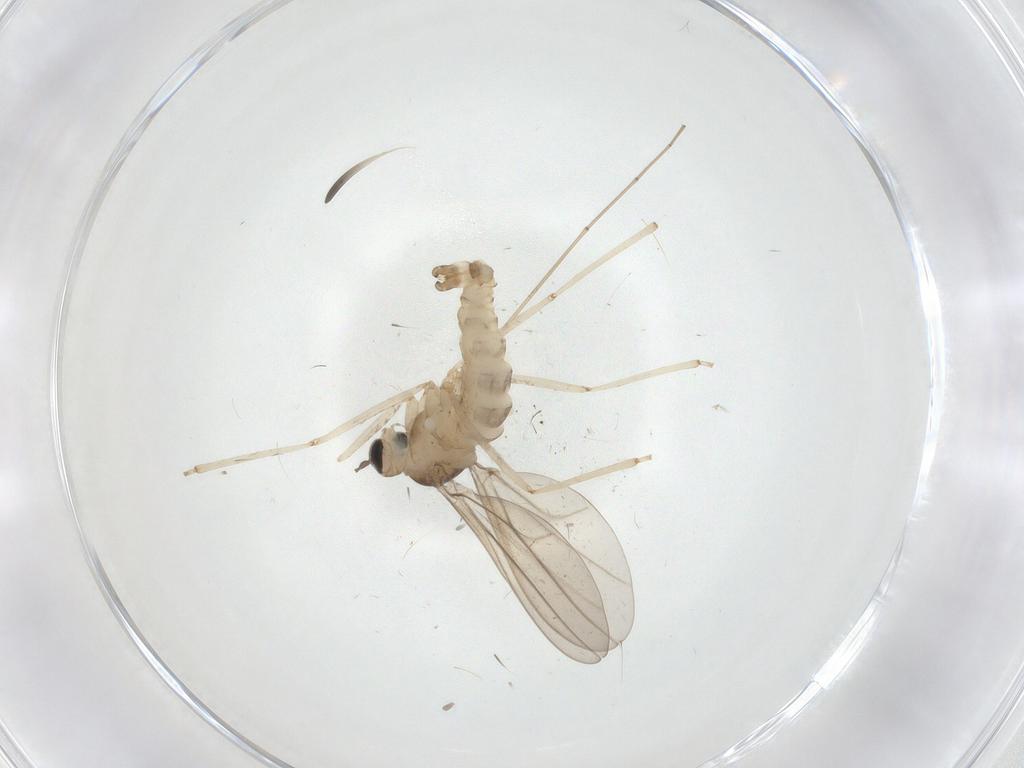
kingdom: Animalia
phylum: Arthropoda
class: Insecta
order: Diptera
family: Cecidomyiidae
